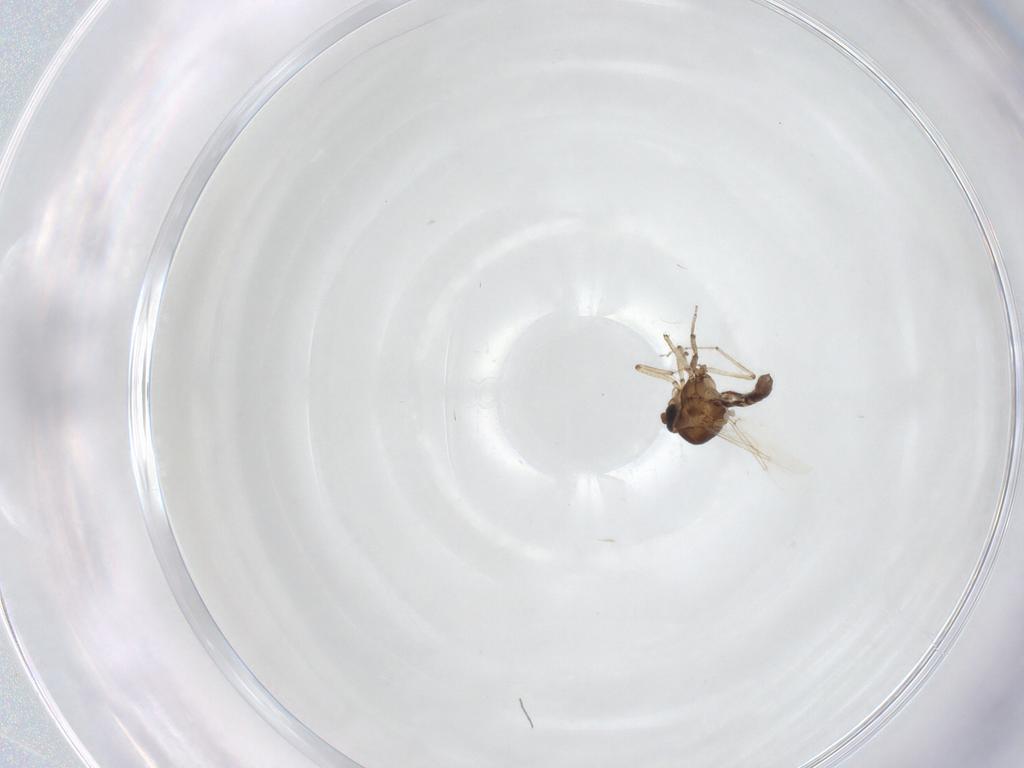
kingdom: Animalia
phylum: Arthropoda
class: Insecta
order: Diptera
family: Ceratopogonidae
